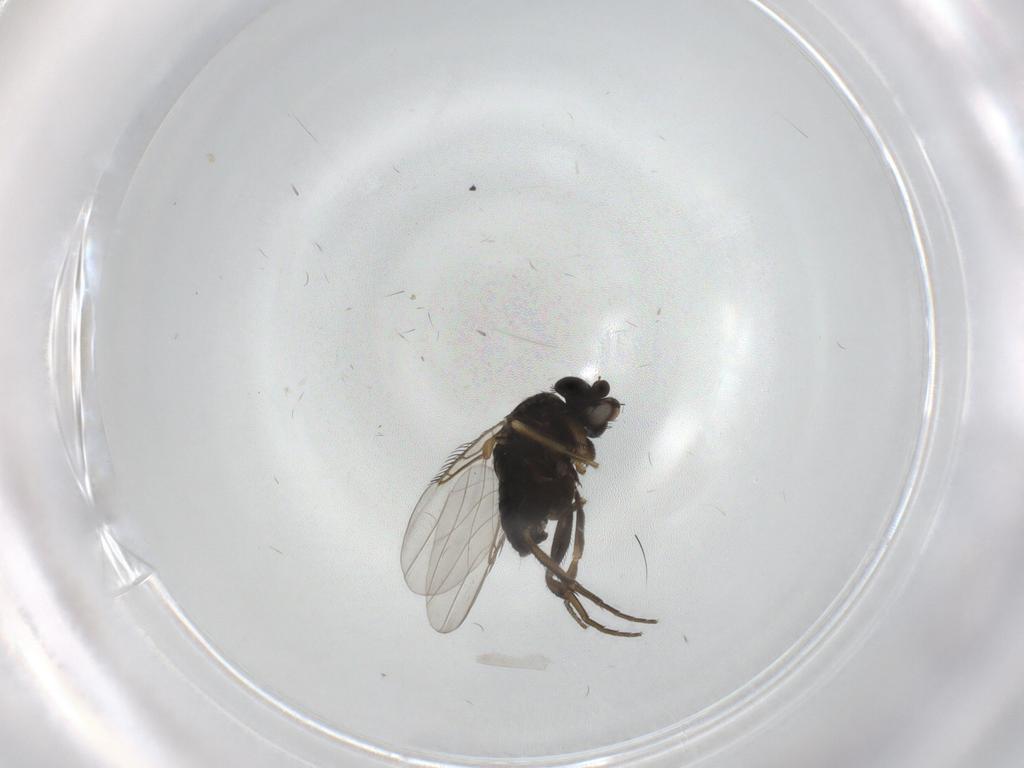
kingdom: Animalia
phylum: Arthropoda
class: Insecta
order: Diptera
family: Phoridae
